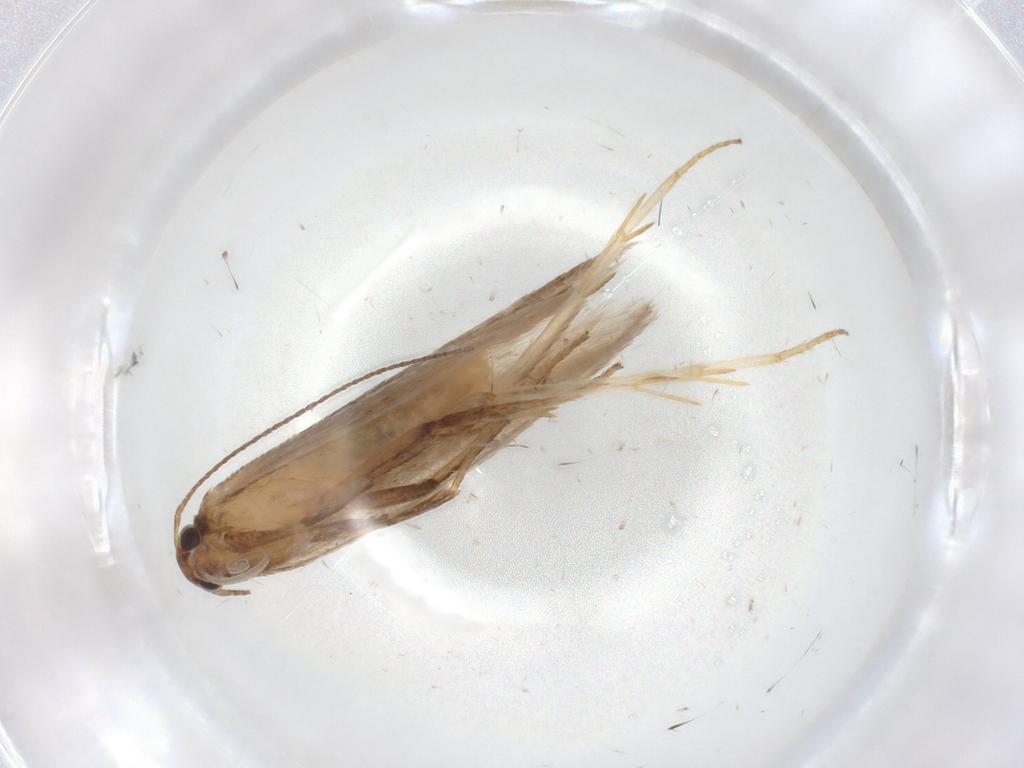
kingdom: Animalia
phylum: Arthropoda
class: Insecta
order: Lepidoptera
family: Gelechiidae
